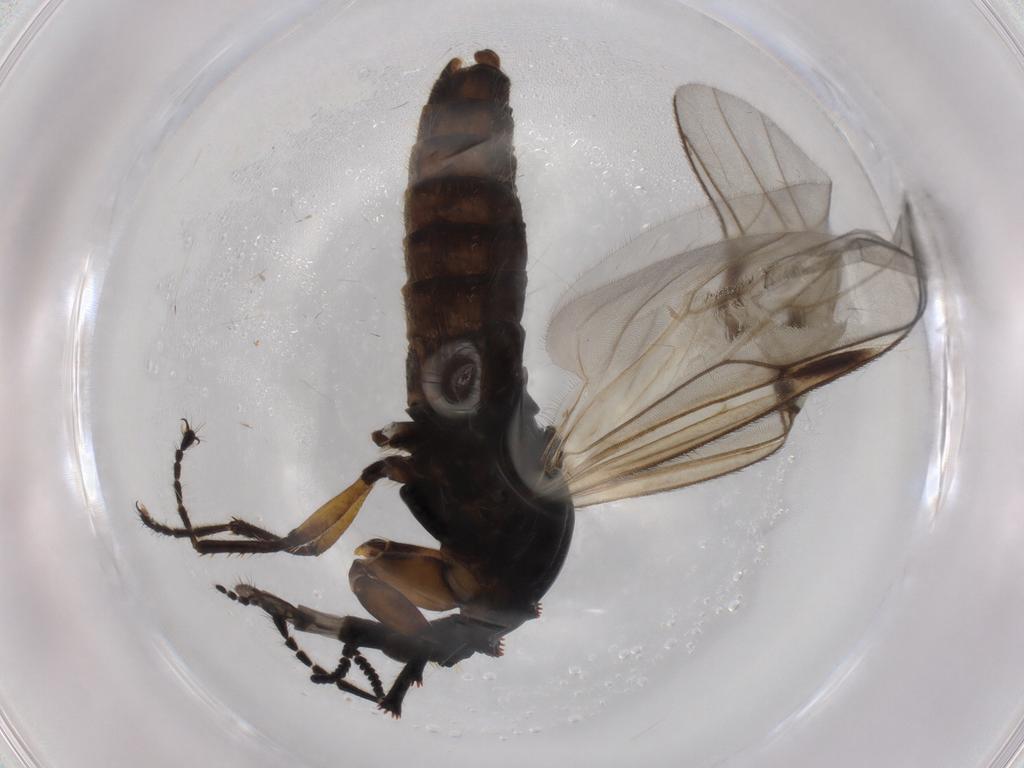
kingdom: Animalia
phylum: Arthropoda
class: Insecta
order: Diptera
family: Bibionidae
